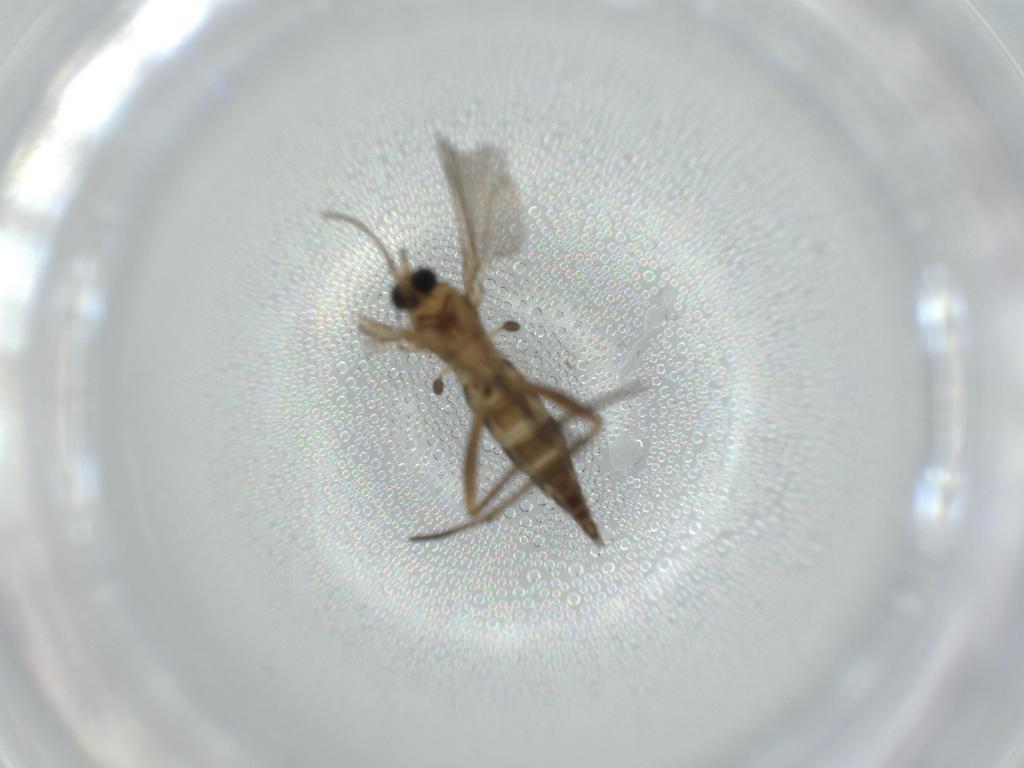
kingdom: Animalia
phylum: Arthropoda
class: Insecta
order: Diptera
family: Sciaridae
